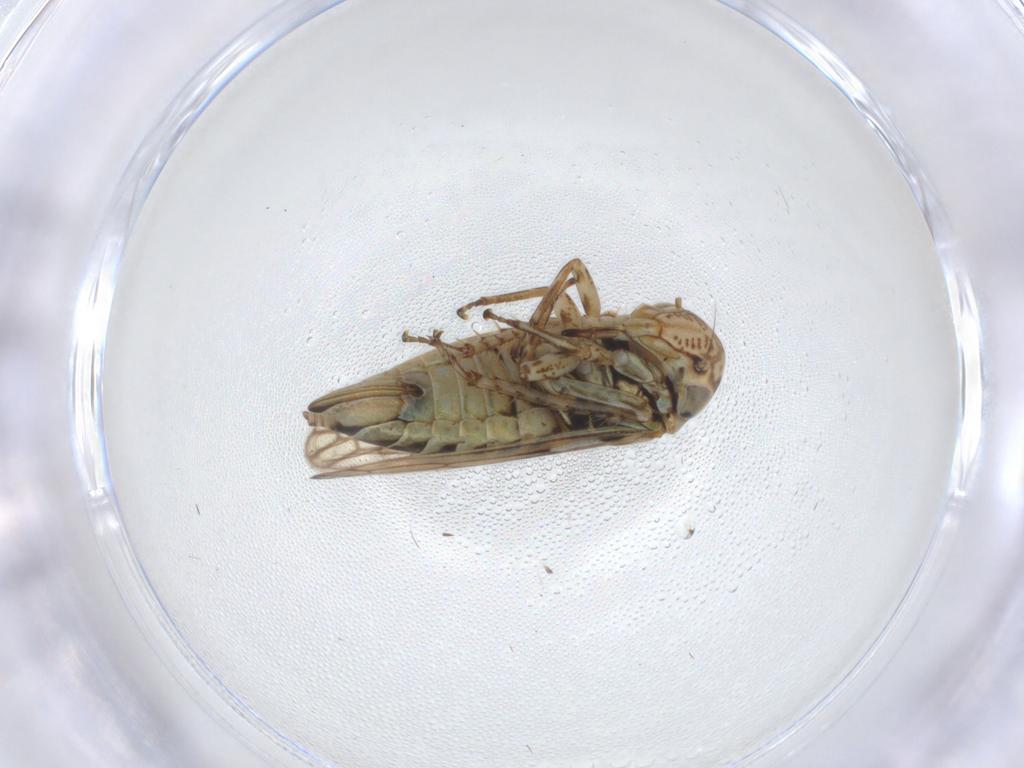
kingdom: Animalia
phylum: Arthropoda
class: Insecta
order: Hemiptera
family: Cicadellidae
